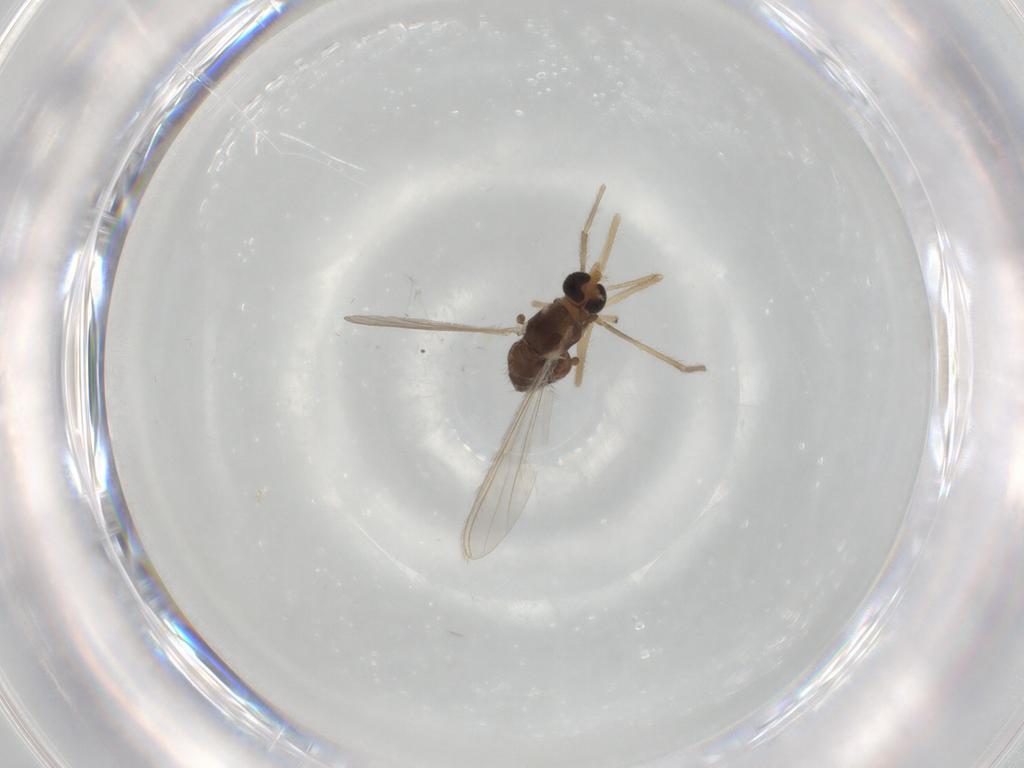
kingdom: Animalia
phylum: Arthropoda
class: Insecta
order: Diptera
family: Chironomidae
